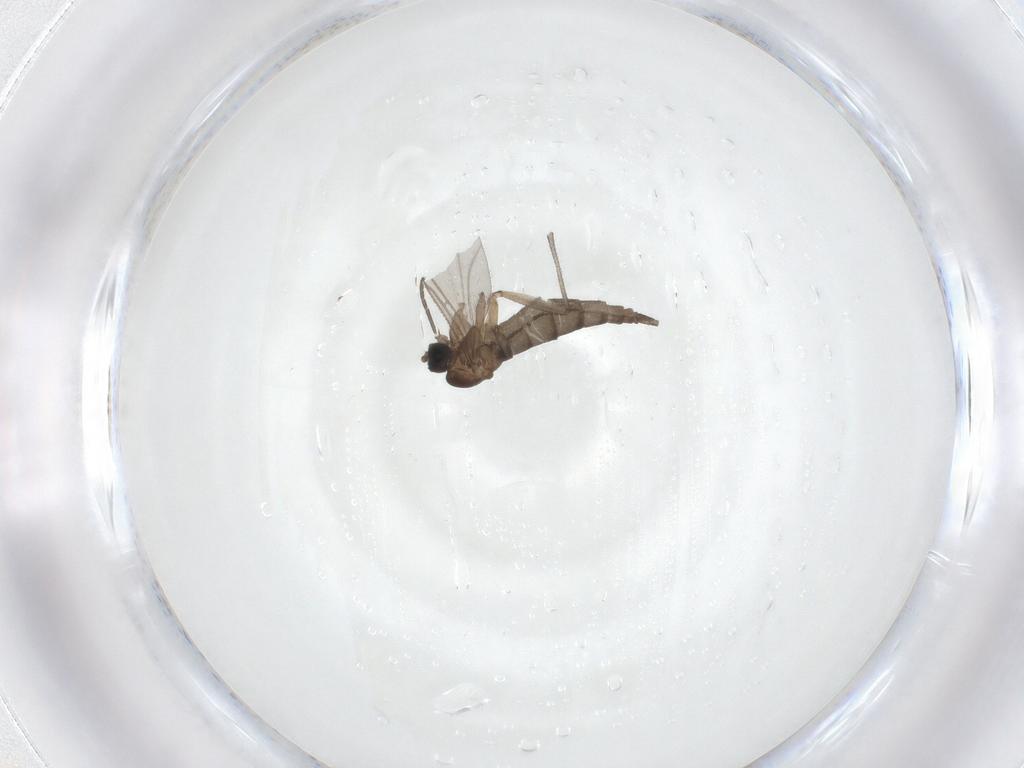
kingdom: Animalia
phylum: Arthropoda
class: Insecta
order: Diptera
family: Sciaridae
